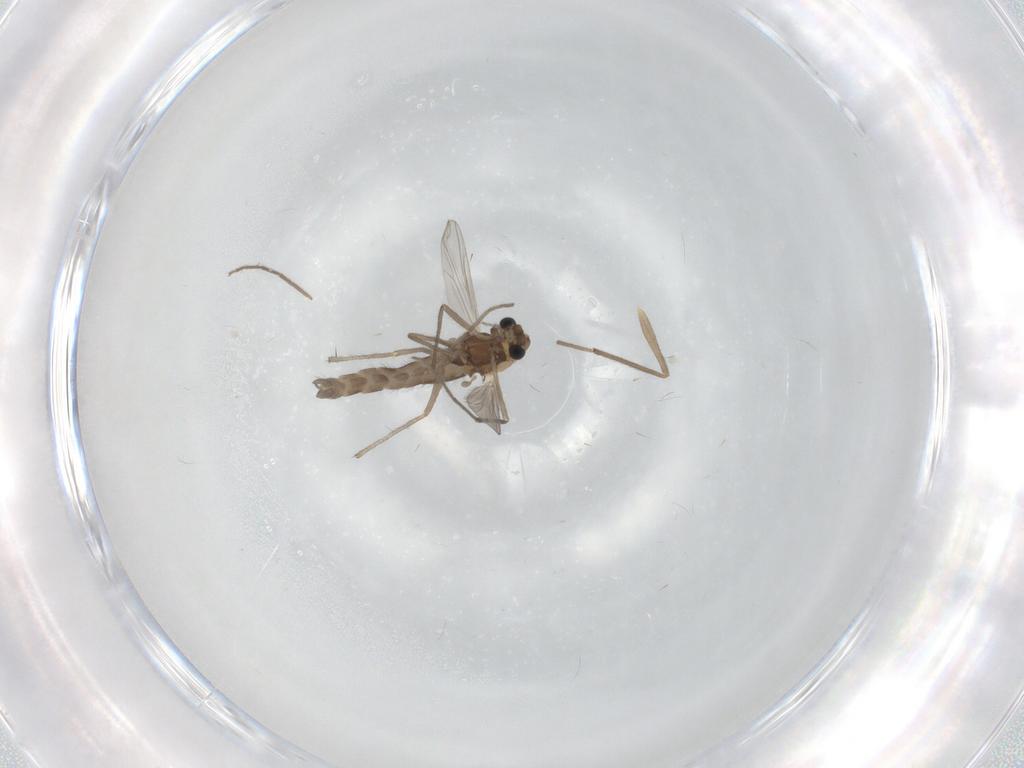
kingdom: Animalia
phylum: Arthropoda
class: Insecta
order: Diptera
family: Chironomidae
